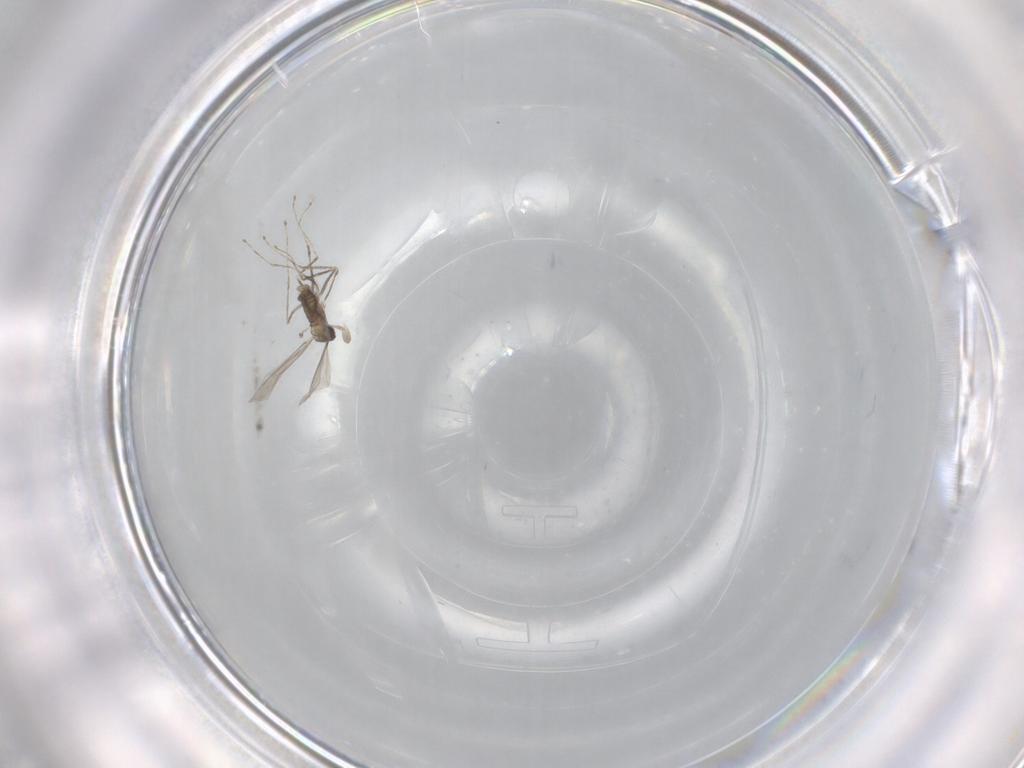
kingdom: Animalia
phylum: Arthropoda
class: Insecta
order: Diptera
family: Cecidomyiidae
